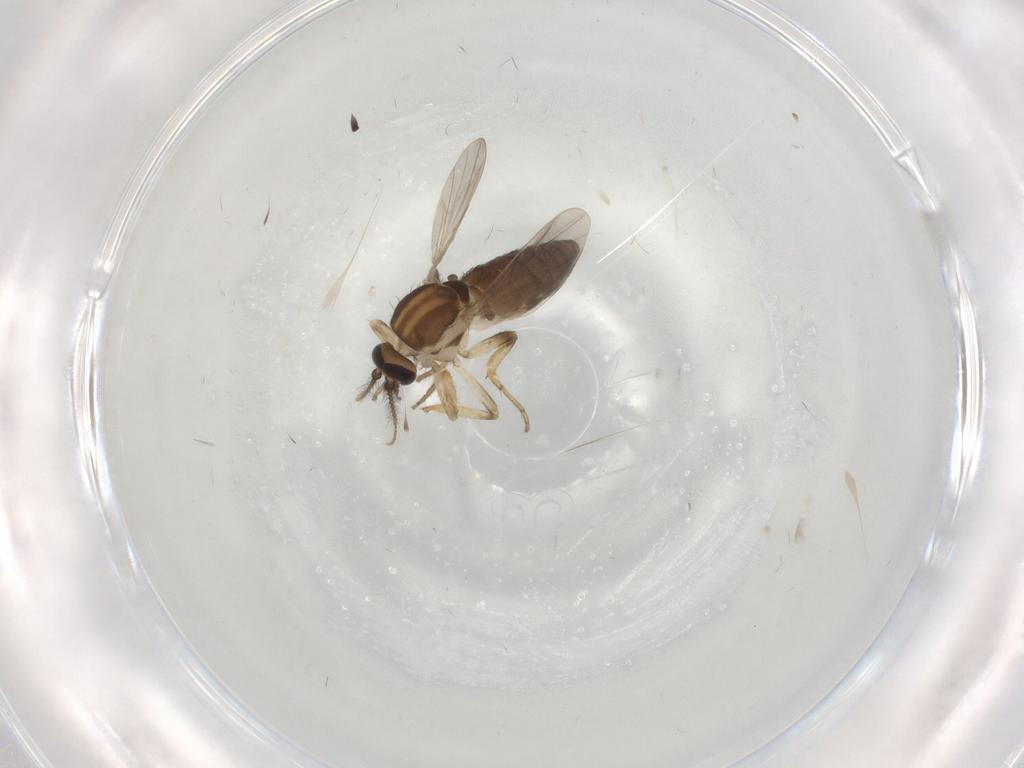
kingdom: Animalia
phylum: Arthropoda
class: Insecta
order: Diptera
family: Ceratopogonidae
